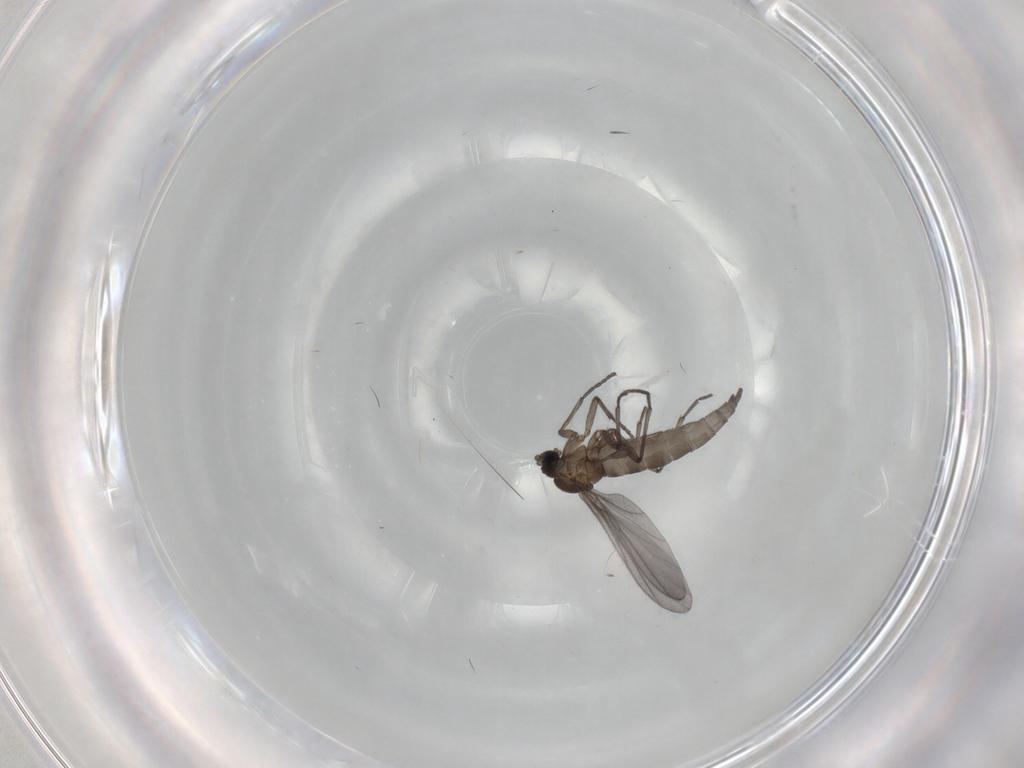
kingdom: Animalia
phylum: Arthropoda
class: Insecta
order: Diptera
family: Sciaridae
